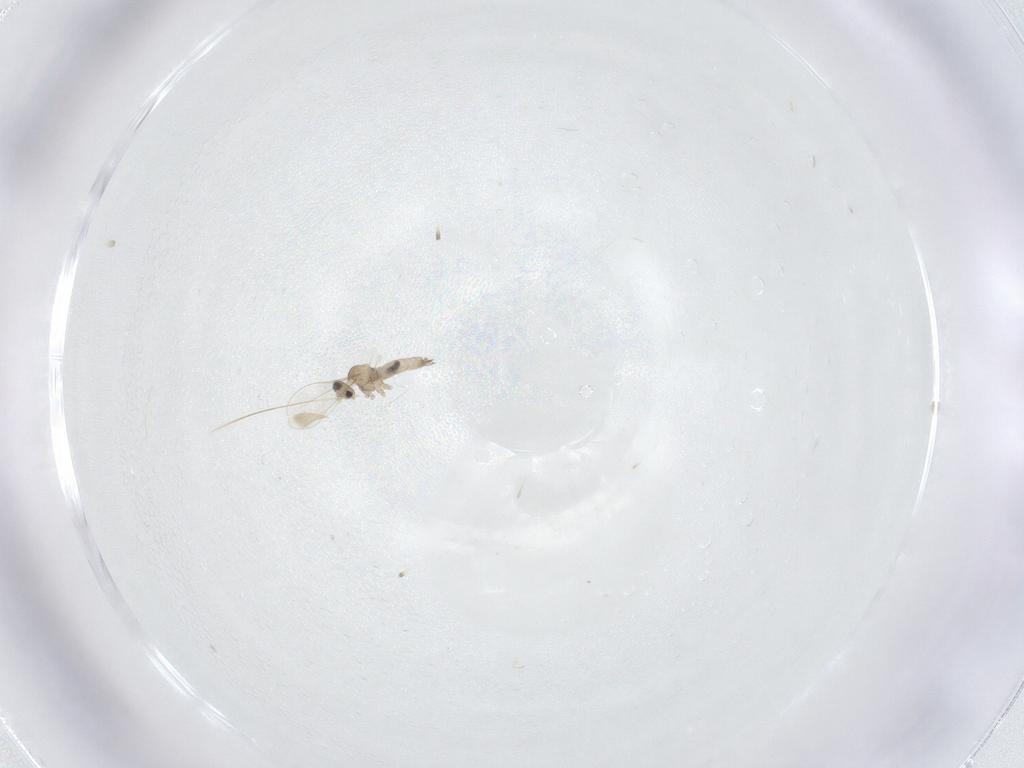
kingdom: Animalia
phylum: Arthropoda
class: Insecta
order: Diptera
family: Cecidomyiidae
